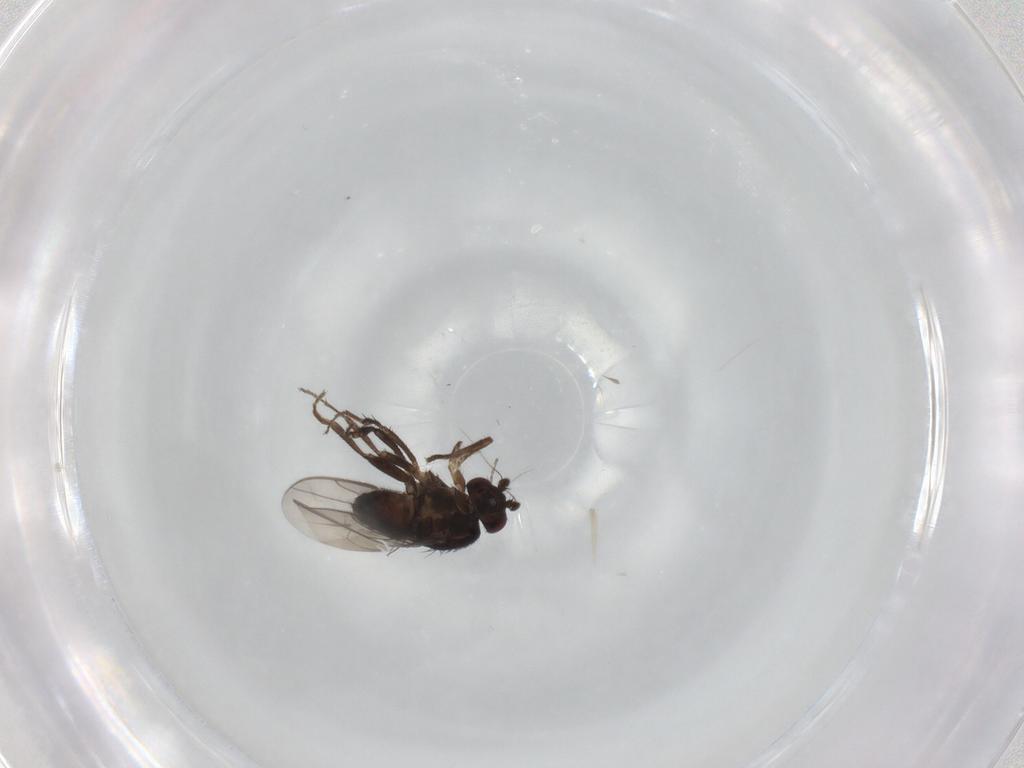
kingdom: Animalia
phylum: Arthropoda
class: Insecta
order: Diptera
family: Sphaeroceridae
